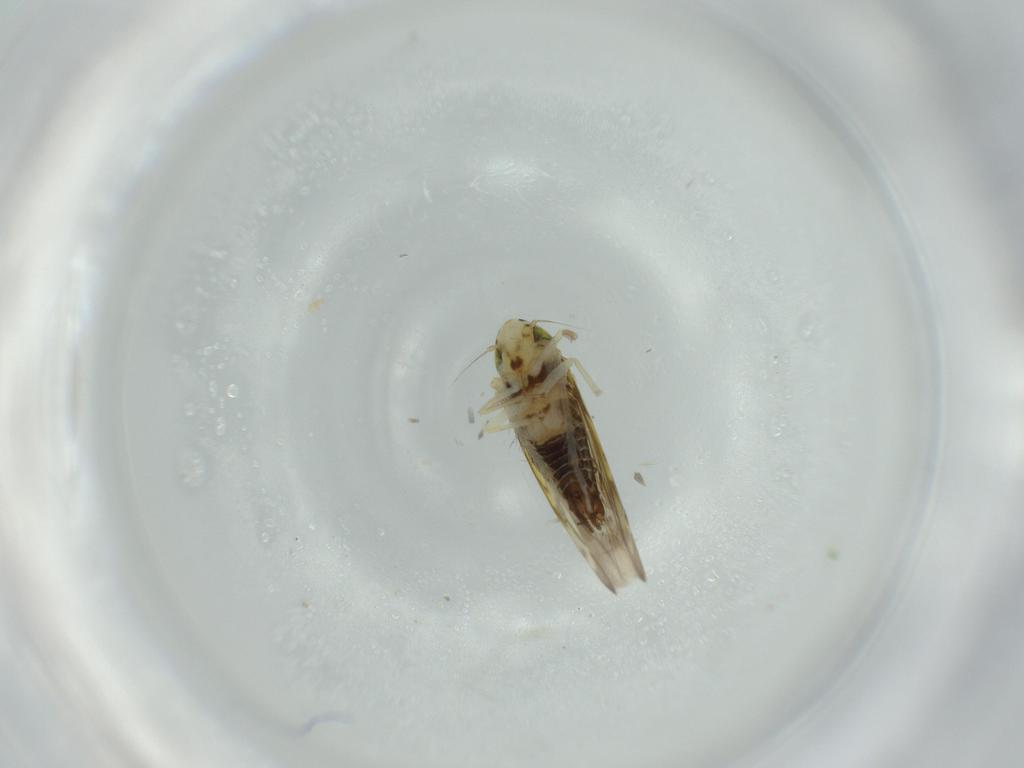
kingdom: Animalia
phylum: Arthropoda
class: Insecta
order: Hemiptera
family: Cicadellidae
